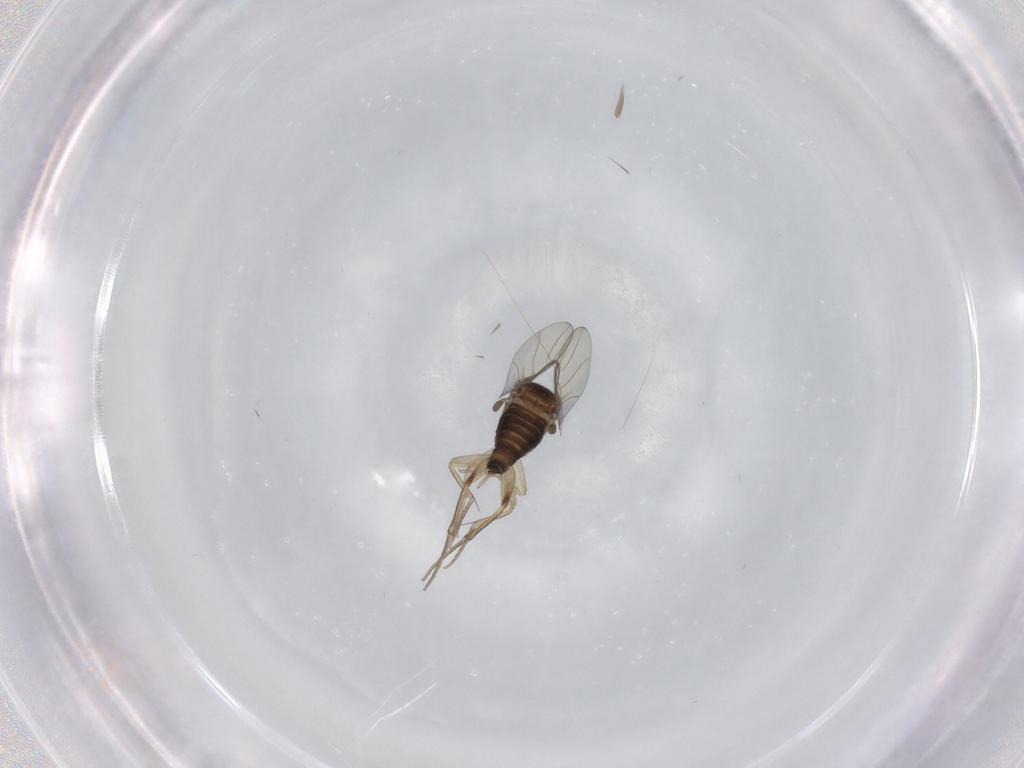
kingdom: Animalia
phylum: Arthropoda
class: Insecta
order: Diptera
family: Phoridae
